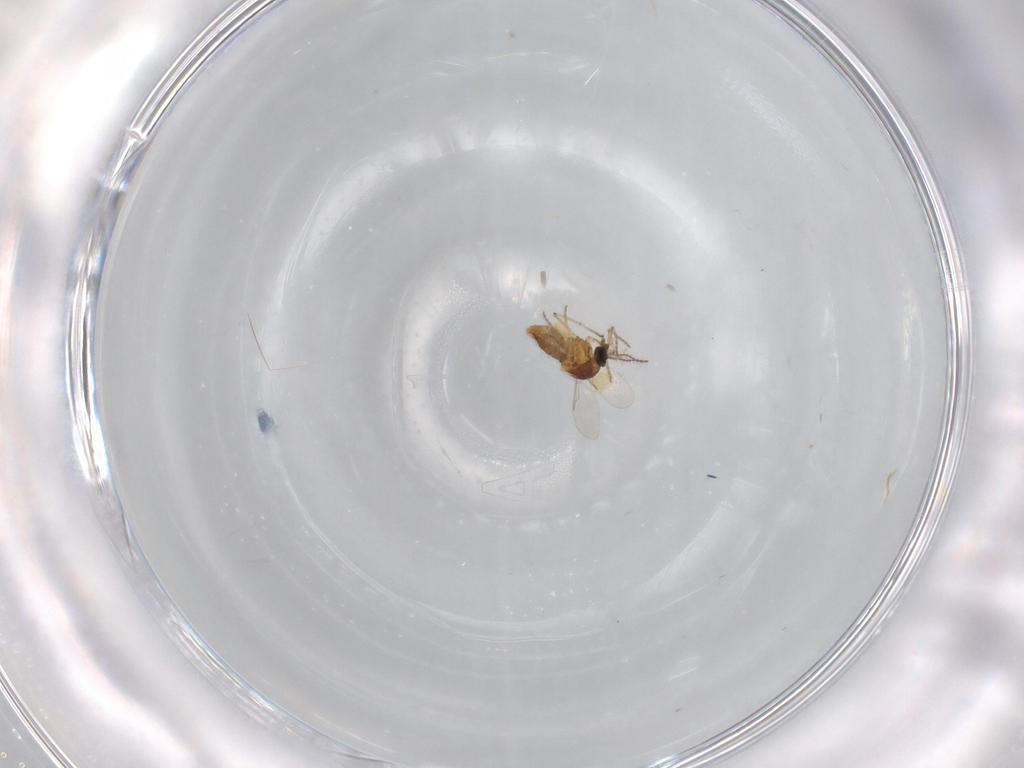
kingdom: Animalia
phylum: Arthropoda
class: Insecta
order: Diptera
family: Ceratopogonidae
